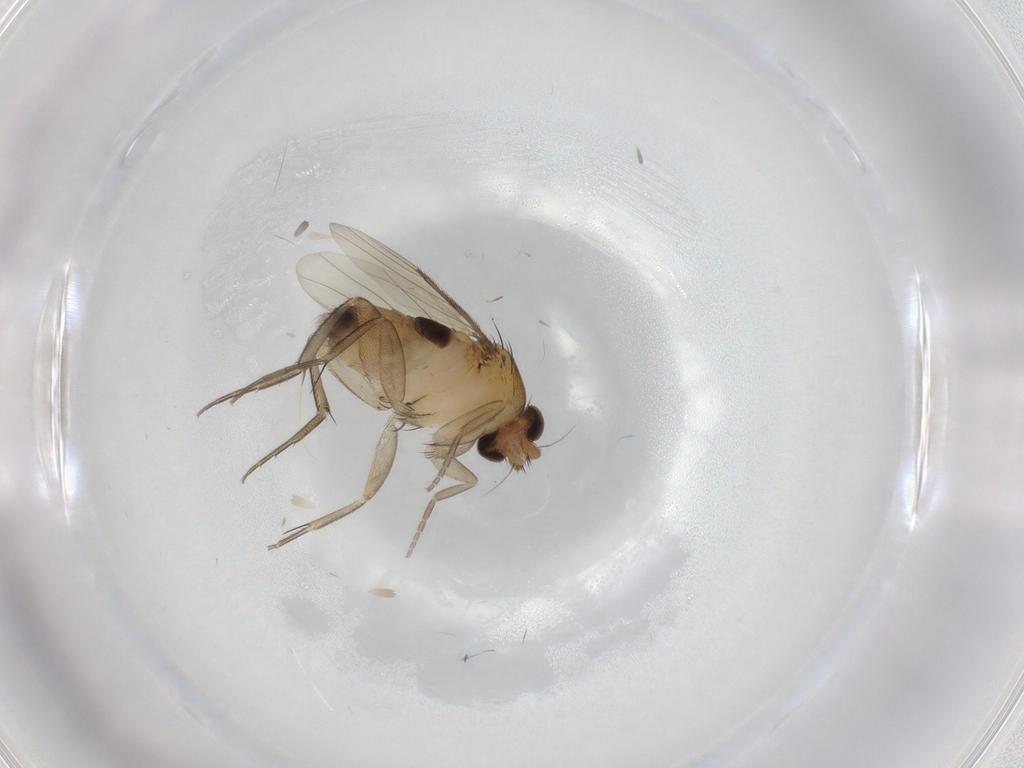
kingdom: Animalia
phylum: Arthropoda
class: Insecta
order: Diptera
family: Phoridae
